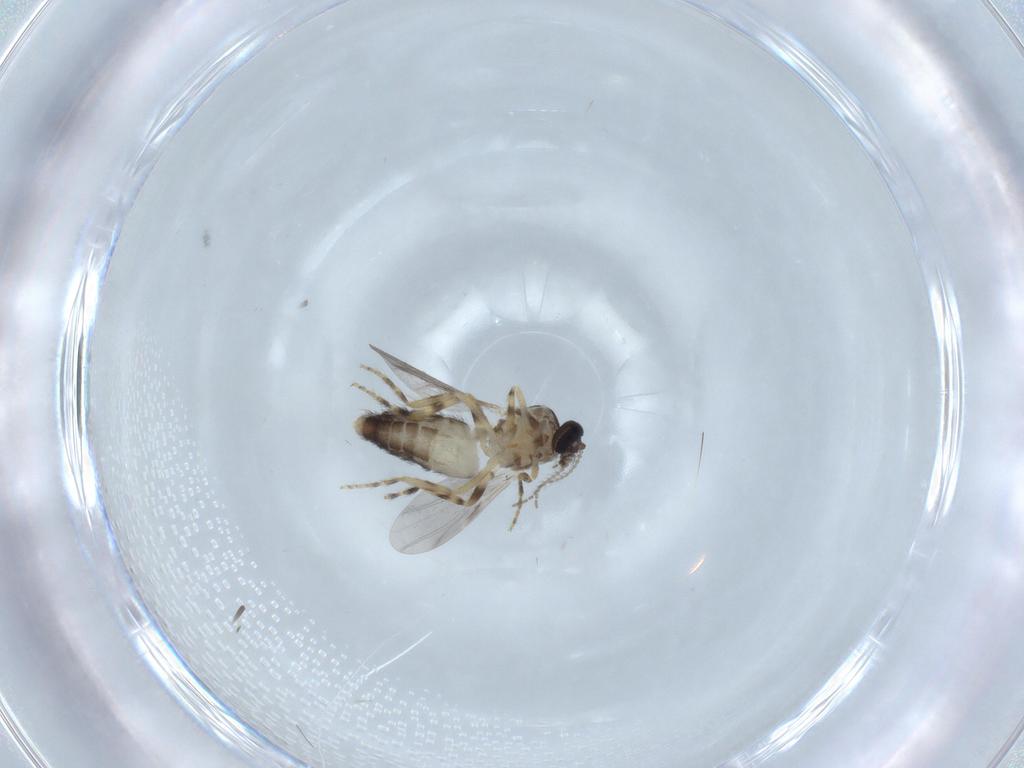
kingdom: Animalia
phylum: Arthropoda
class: Insecta
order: Diptera
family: Ceratopogonidae
